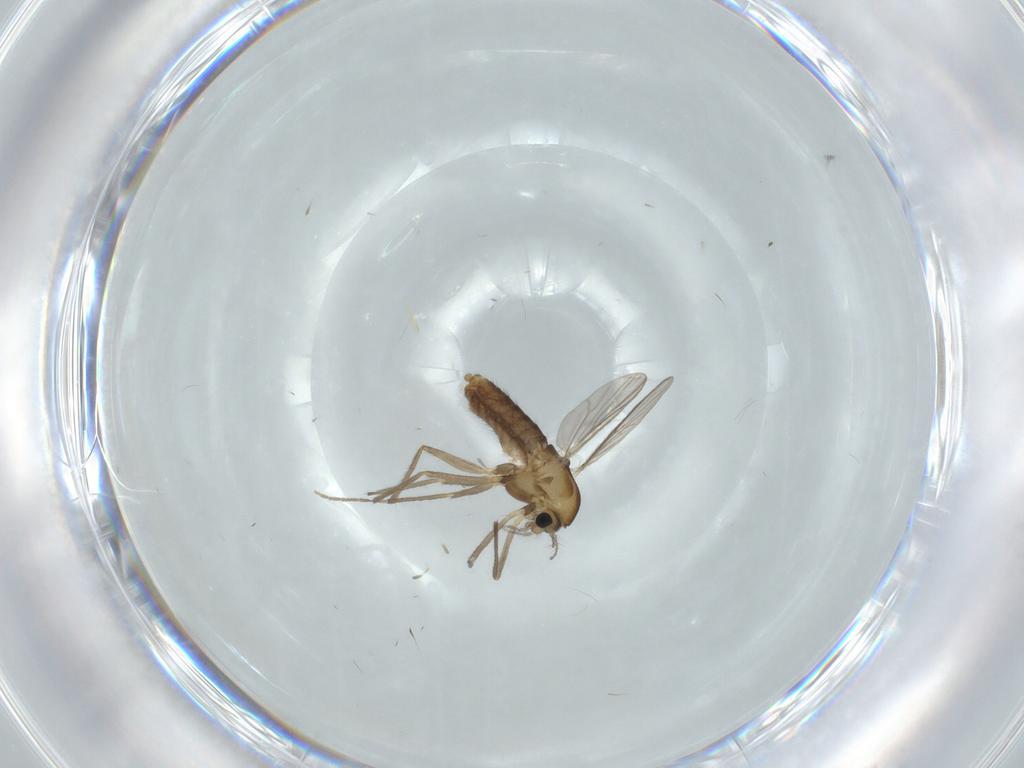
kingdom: Animalia
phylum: Arthropoda
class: Insecta
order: Diptera
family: Chironomidae
